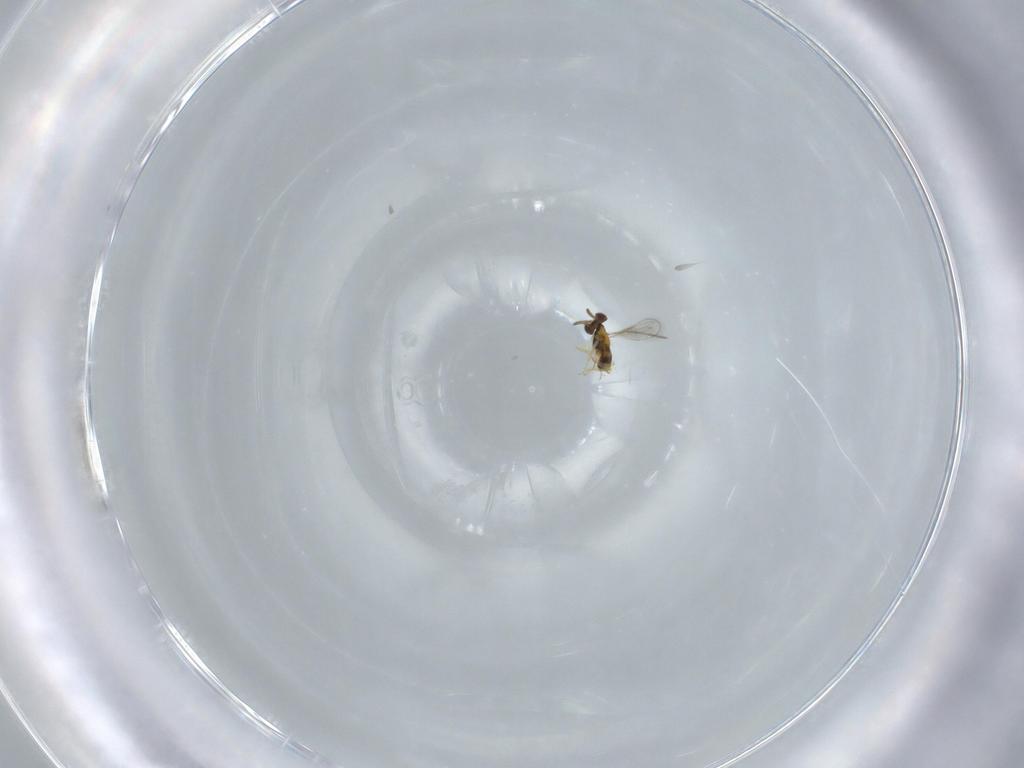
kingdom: Animalia
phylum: Arthropoda
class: Insecta
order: Hymenoptera
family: Aphelinidae
